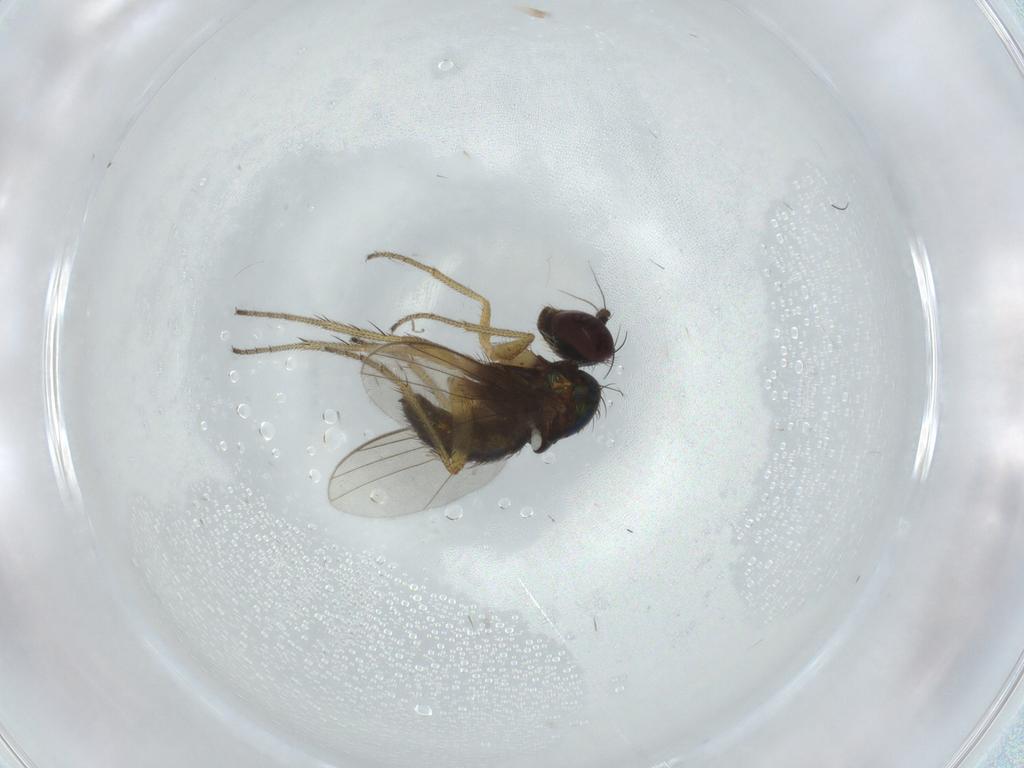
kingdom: Animalia
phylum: Arthropoda
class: Insecta
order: Diptera
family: Dolichopodidae
